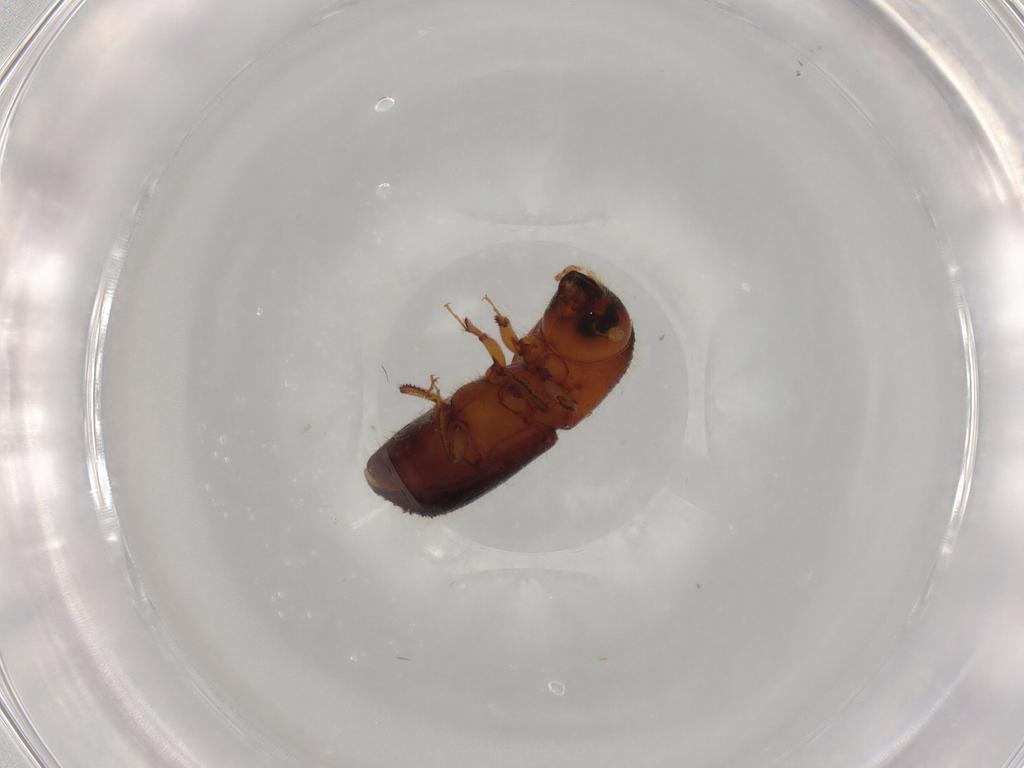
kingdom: Animalia
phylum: Arthropoda
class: Insecta
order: Coleoptera
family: Curculionidae
